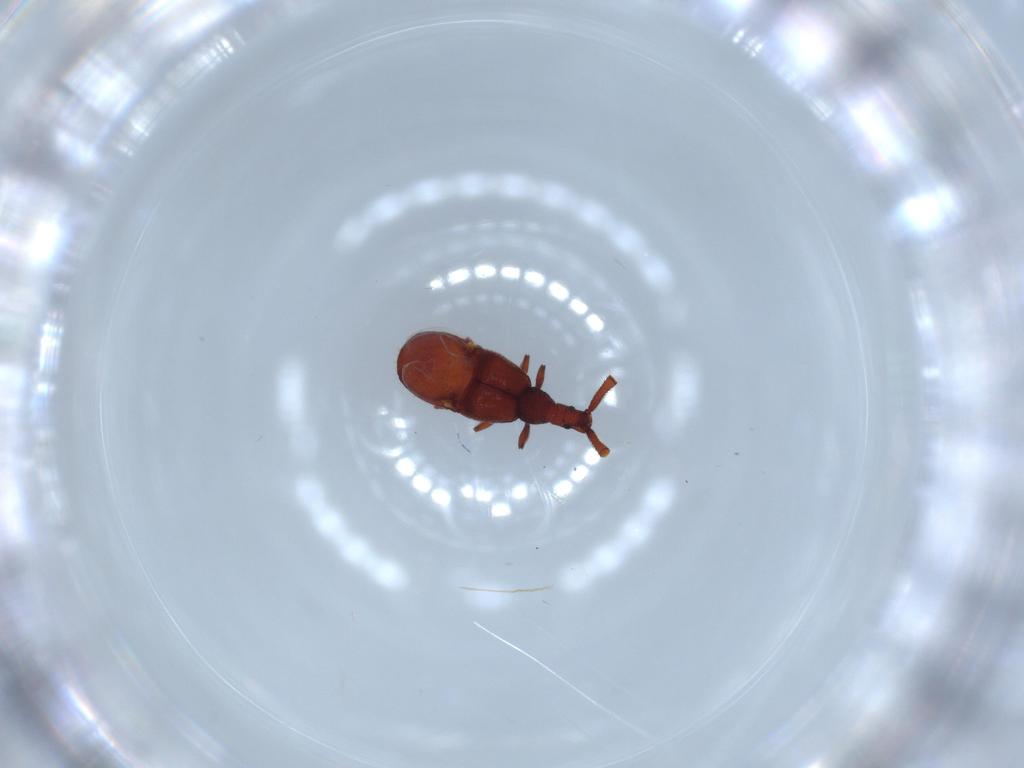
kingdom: Animalia
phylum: Arthropoda
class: Insecta
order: Coleoptera
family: Staphylinidae
